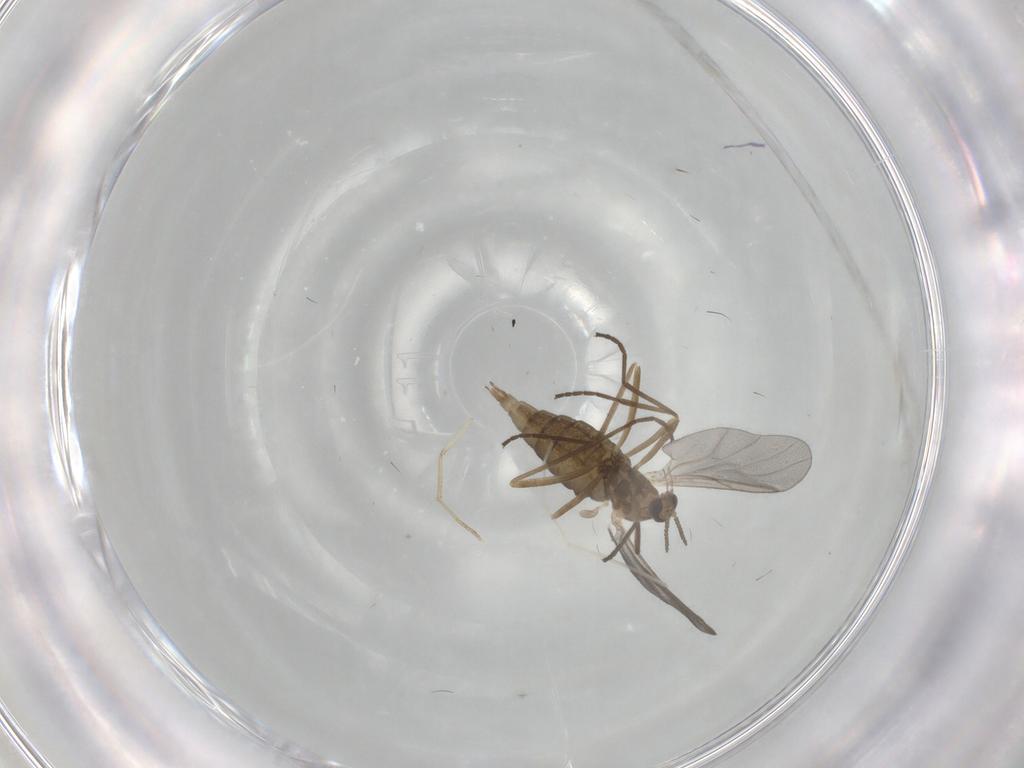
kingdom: Animalia
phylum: Arthropoda
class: Insecta
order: Diptera
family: Cecidomyiidae
